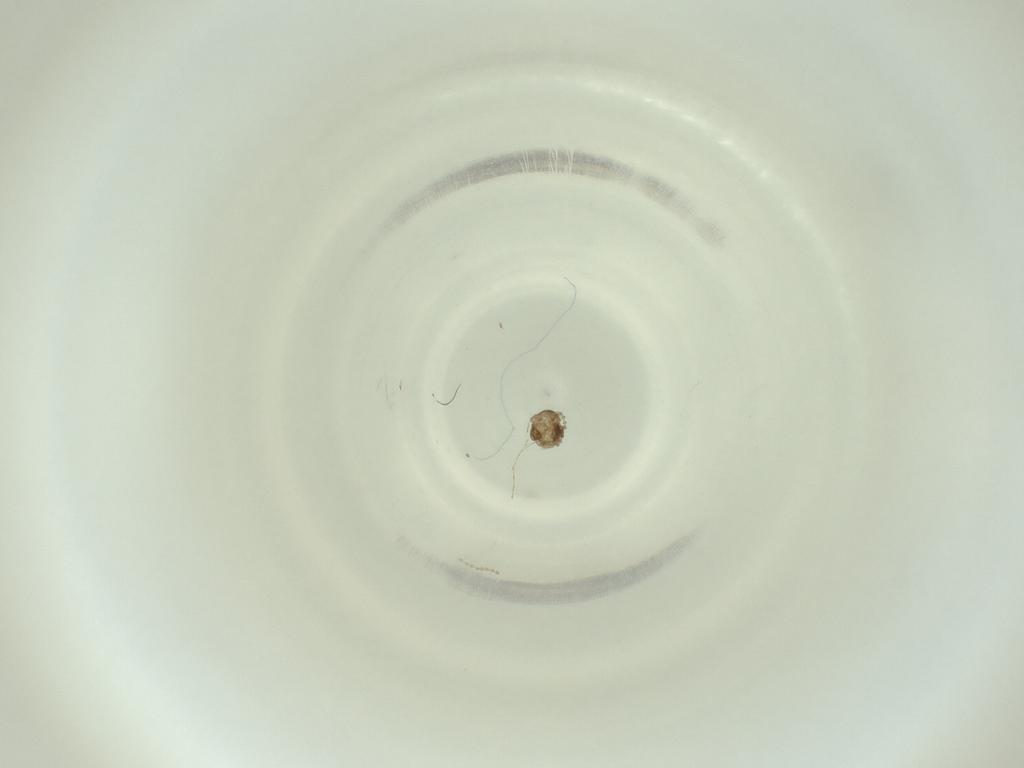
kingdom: Animalia
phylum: Arthropoda
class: Insecta
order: Diptera
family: Cecidomyiidae
